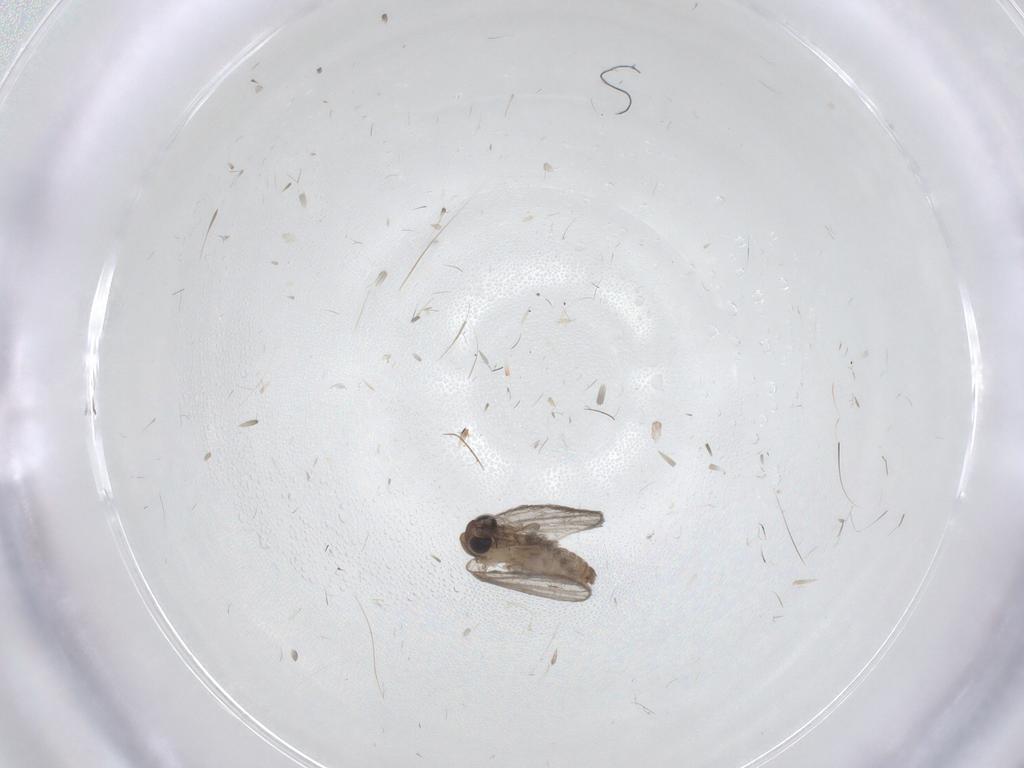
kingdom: Animalia
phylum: Arthropoda
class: Insecta
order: Diptera
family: Psychodidae
